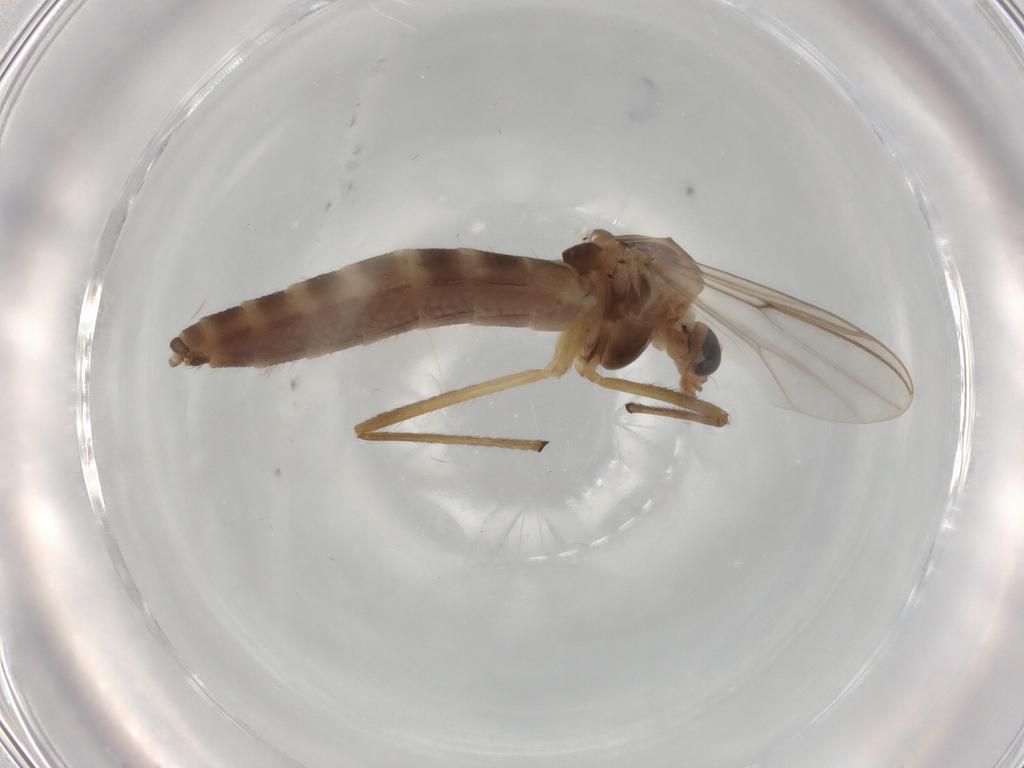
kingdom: Animalia
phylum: Arthropoda
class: Insecta
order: Diptera
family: Chironomidae
